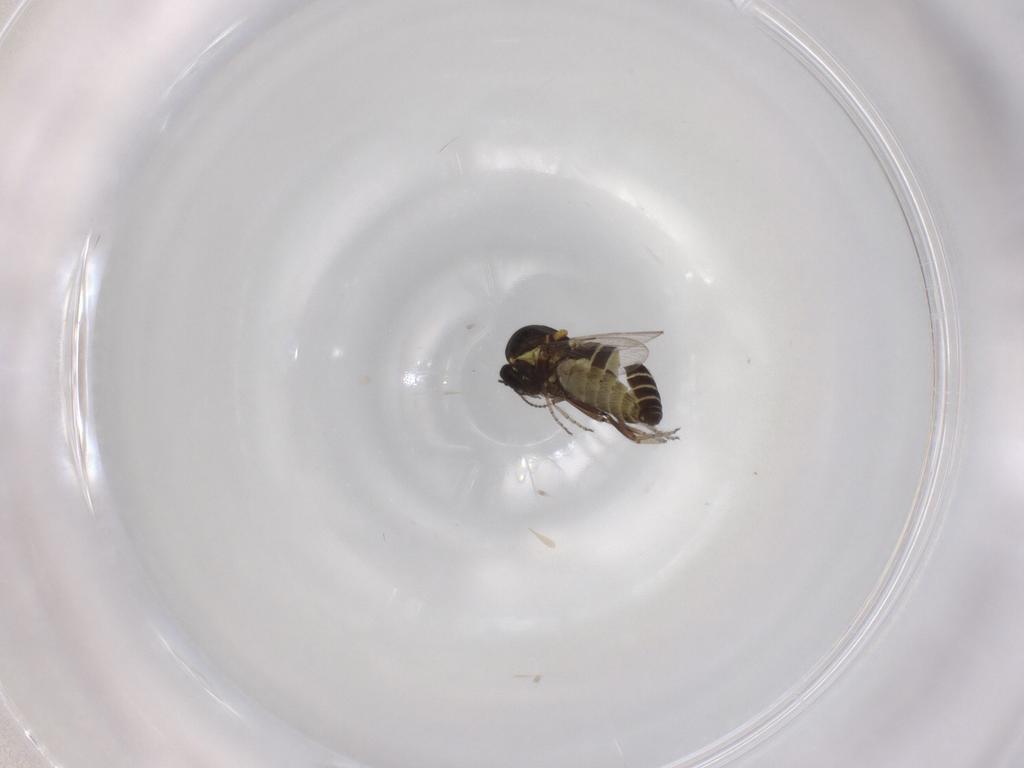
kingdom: Animalia
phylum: Arthropoda
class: Insecta
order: Diptera
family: Ceratopogonidae
